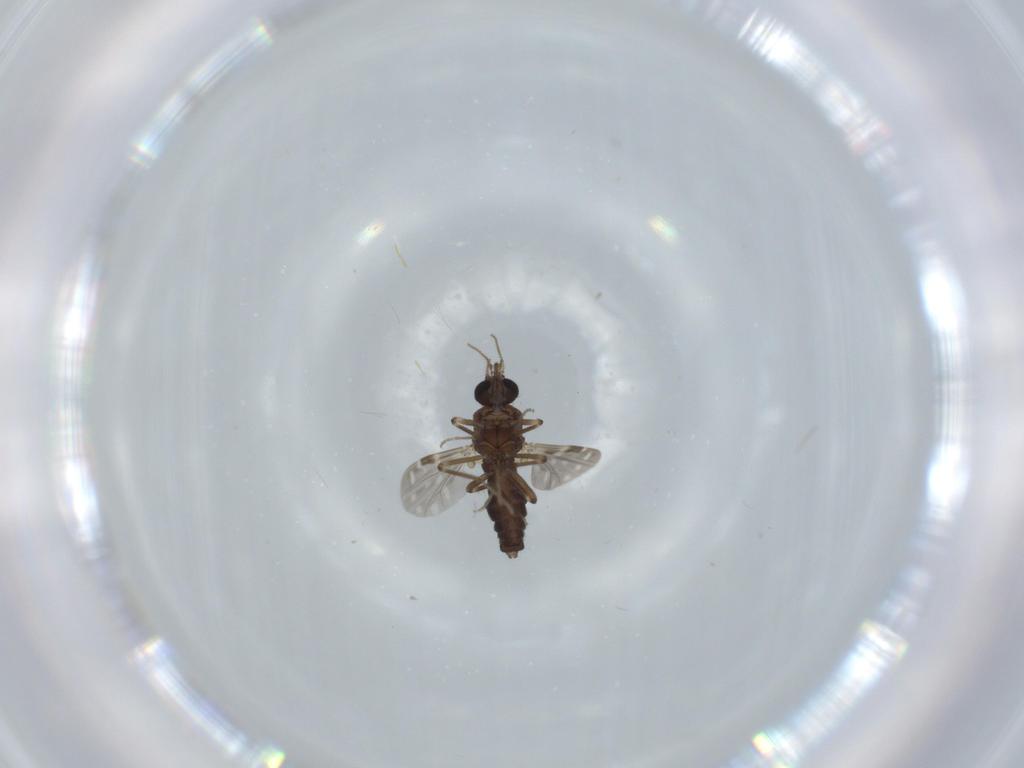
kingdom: Animalia
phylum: Arthropoda
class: Insecta
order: Diptera
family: Ceratopogonidae
